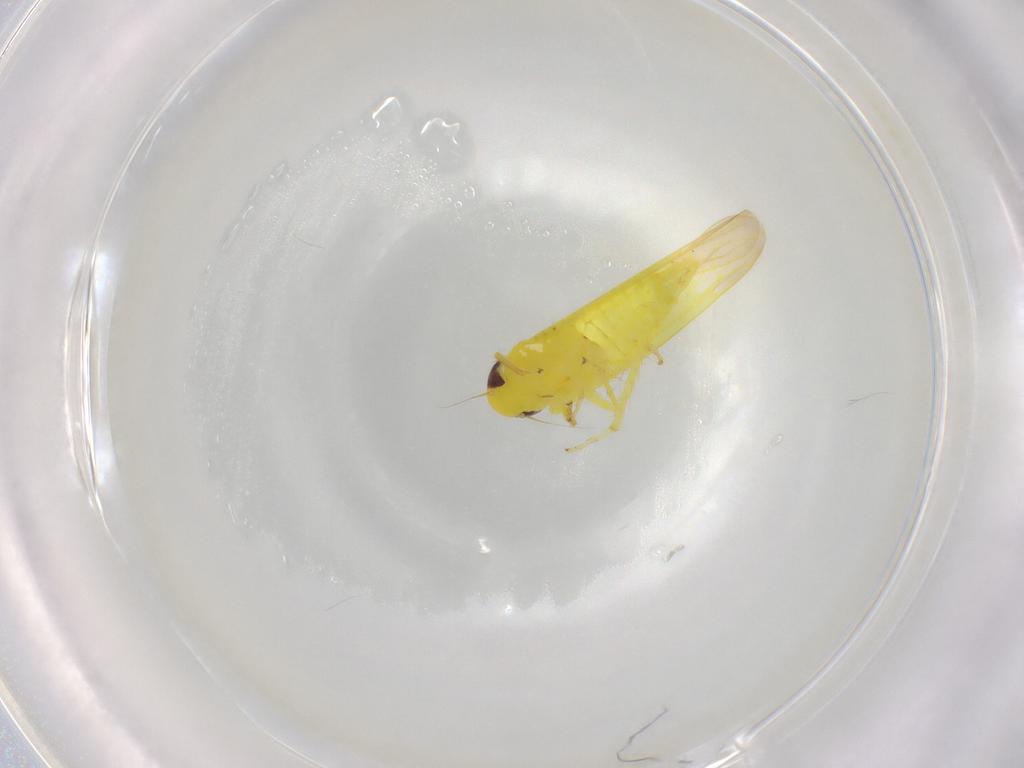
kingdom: Animalia
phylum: Arthropoda
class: Insecta
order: Hemiptera
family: Cicadellidae
